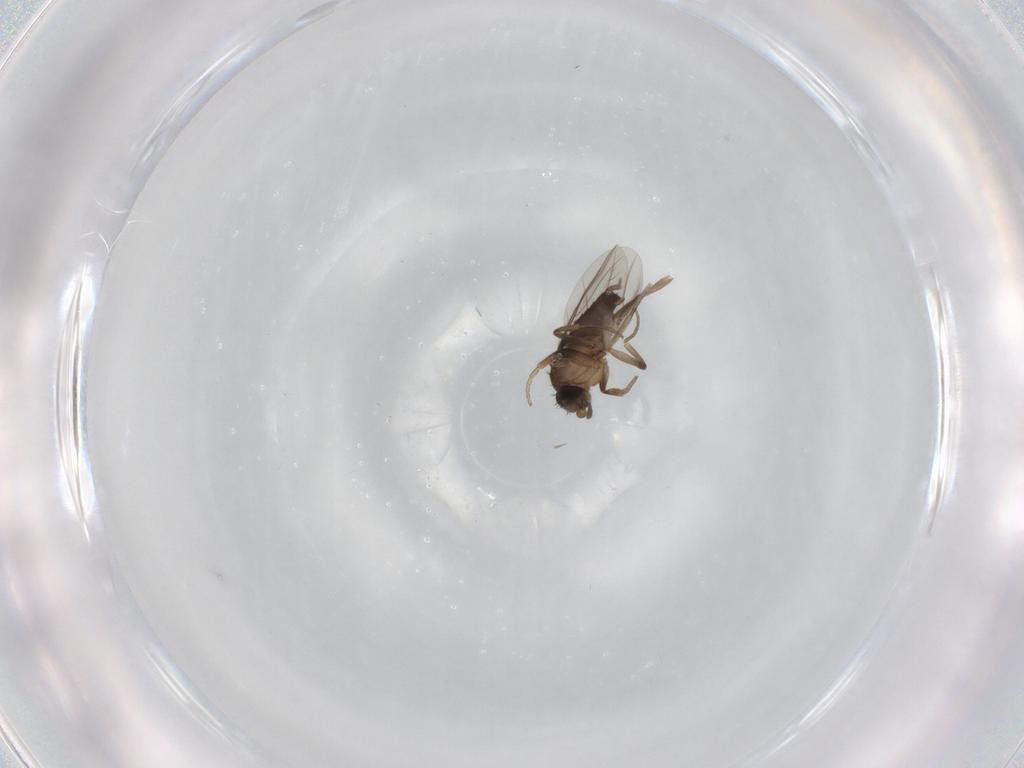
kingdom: Animalia
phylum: Arthropoda
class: Insecta
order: Diptera
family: Phoridae
